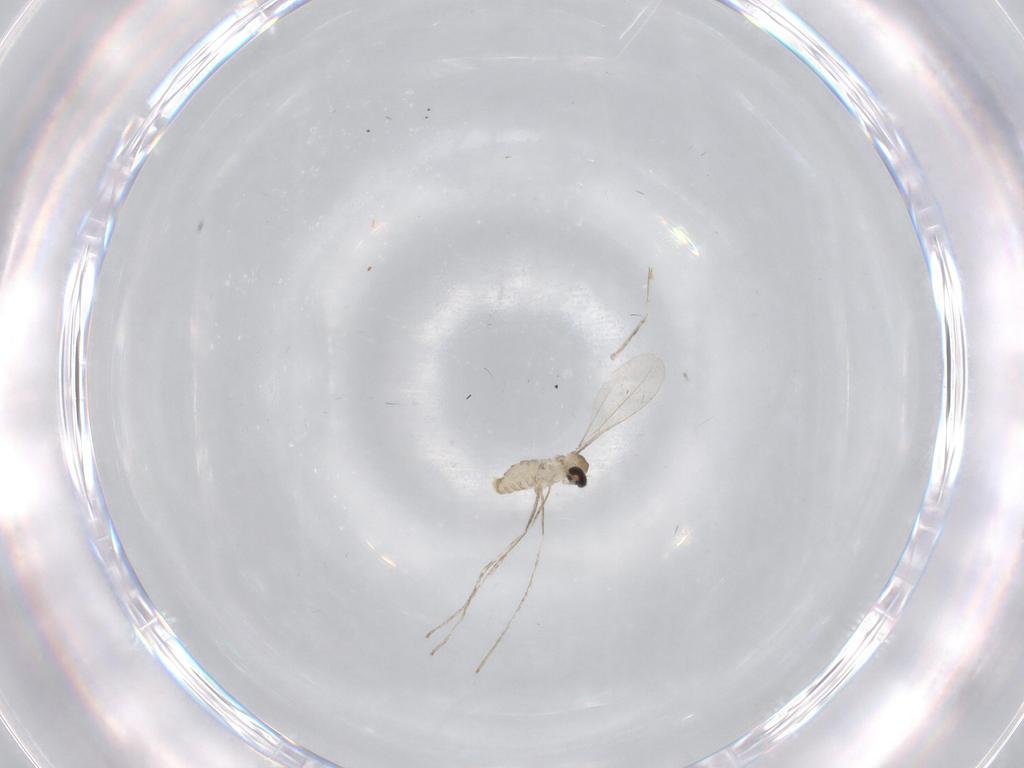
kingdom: Animalia
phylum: Arthropoda
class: Insecta
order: Diptera
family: Cecidomyiidae
